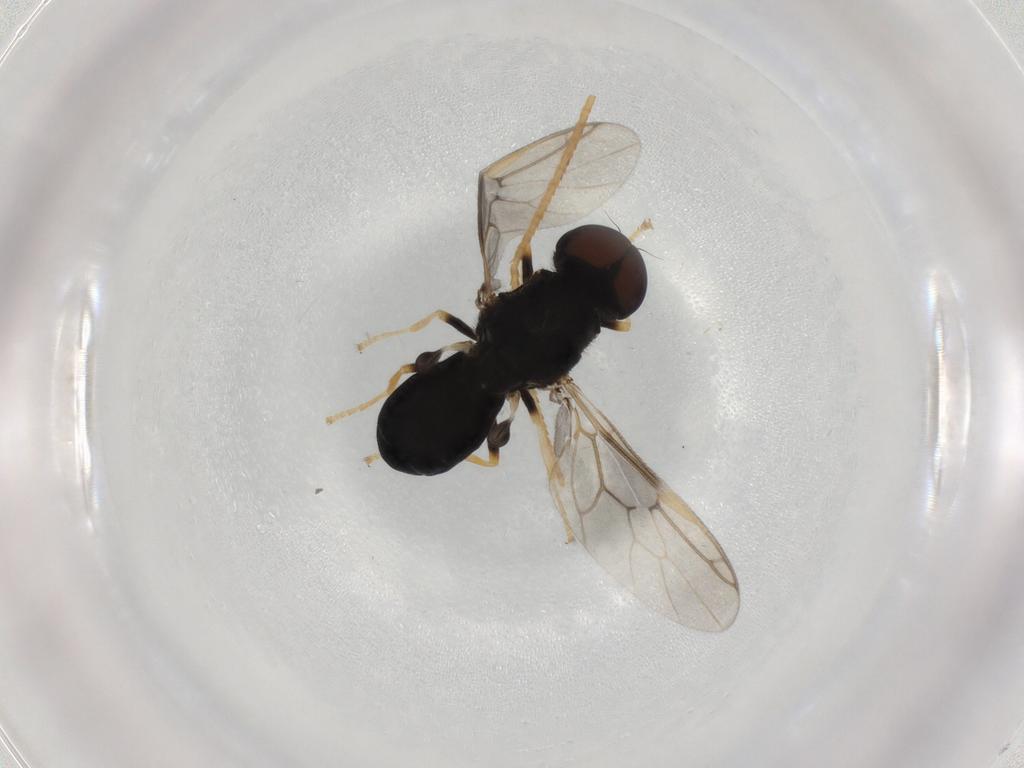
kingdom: Animalia
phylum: Arthropoda
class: Insecta
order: Diptera
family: Stratiomyidae
